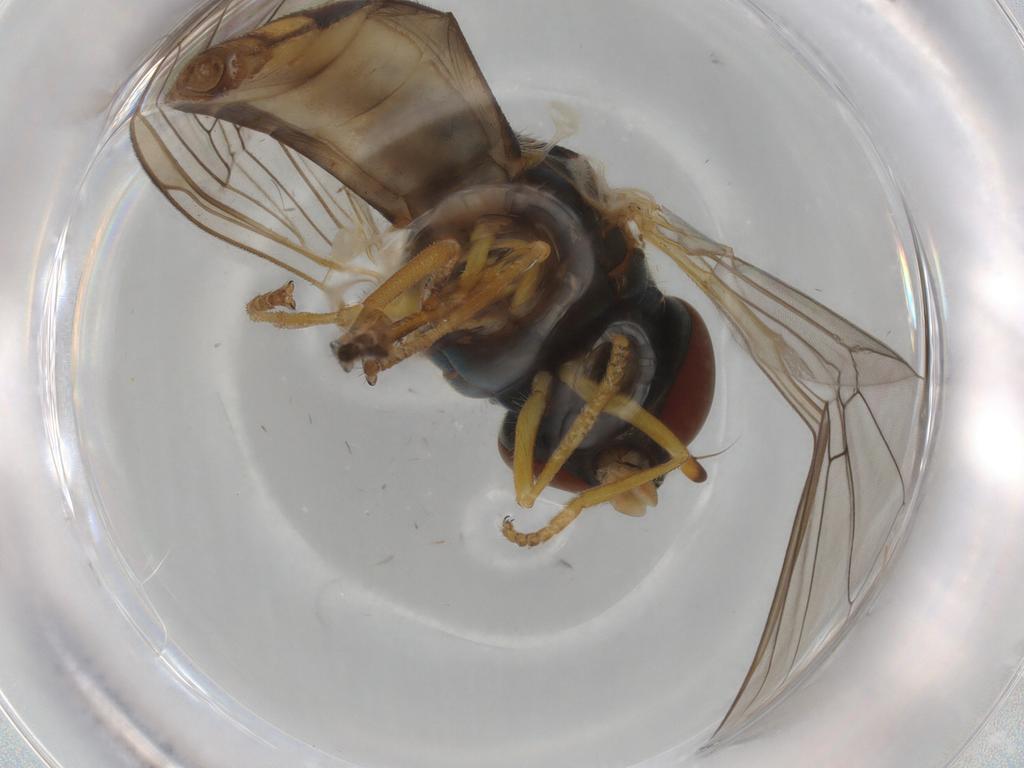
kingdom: Animalia
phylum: Arthropoda
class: Insecta
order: Diptera
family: Syrphidae
